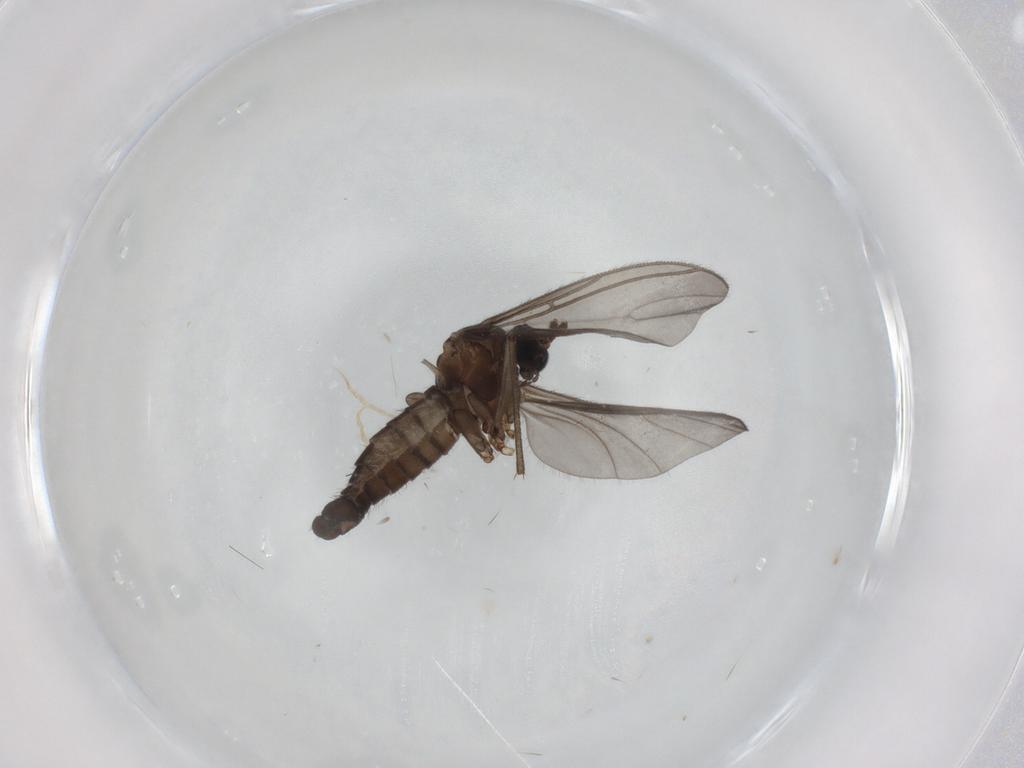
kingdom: Animalia
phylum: Arthropoda
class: Insecta
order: Diptera
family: Sciaridae
